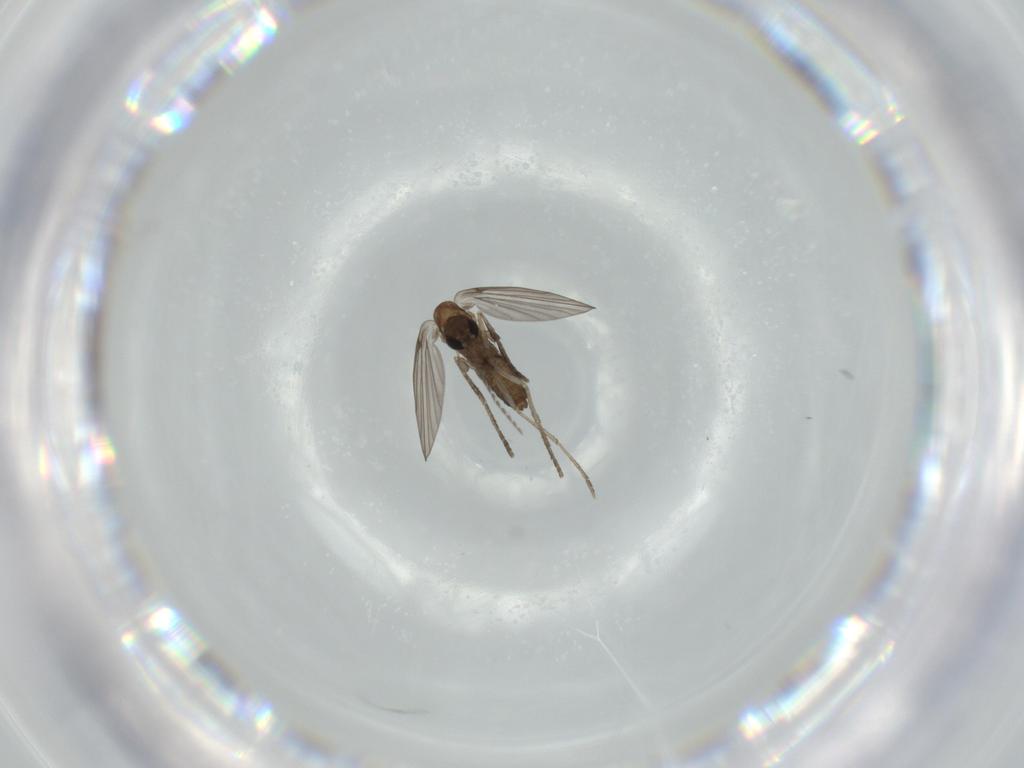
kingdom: Animalia
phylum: Arthropoda
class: Insecta
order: Diptera
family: Psychodidae
